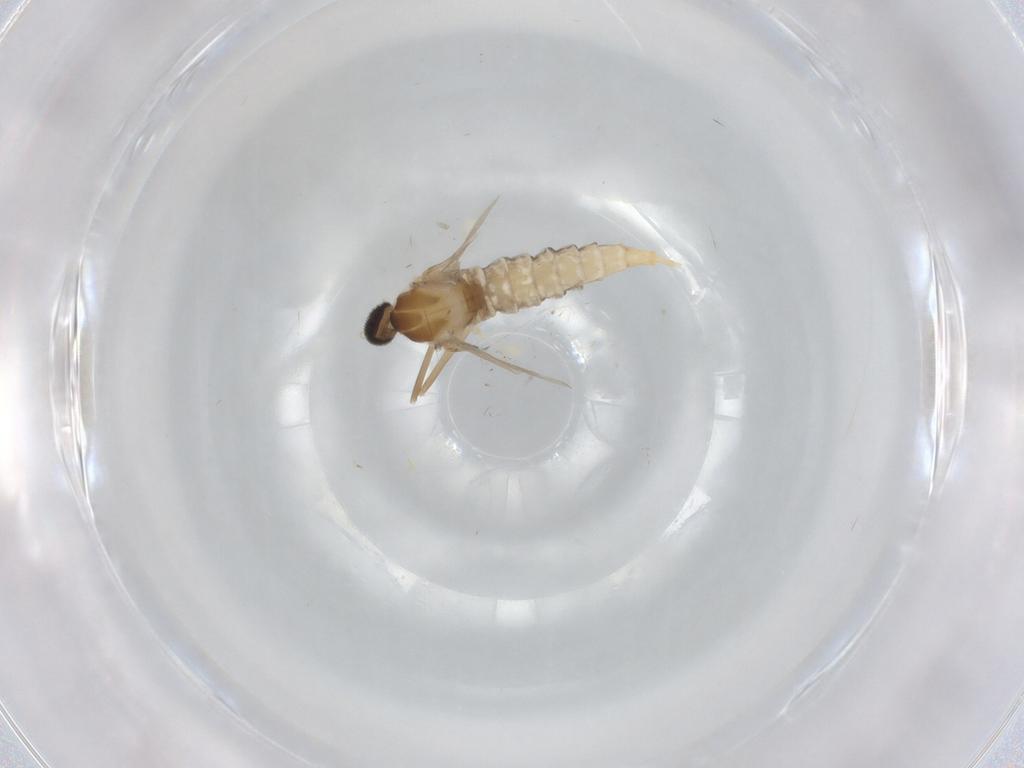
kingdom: Animalia
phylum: Arthropoda
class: Insecta
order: Diptera
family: Cecidomyiidae
